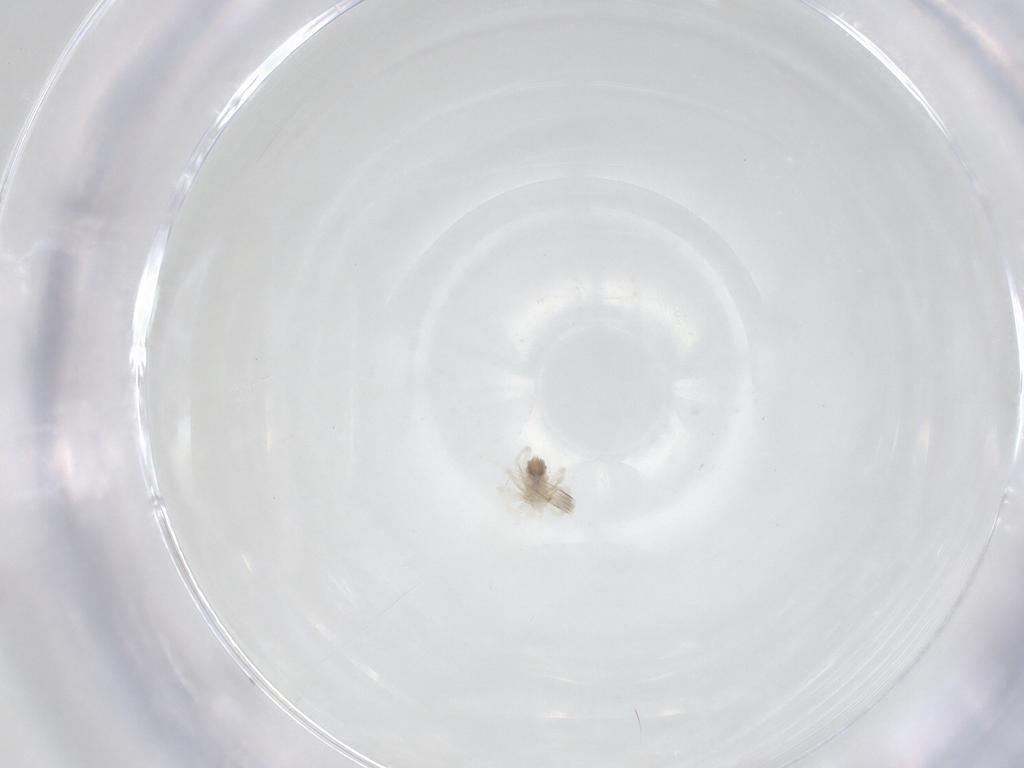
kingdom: Animalia
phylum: Arthropoda
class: Arachnida
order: Trombidiformes
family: Anystidae
